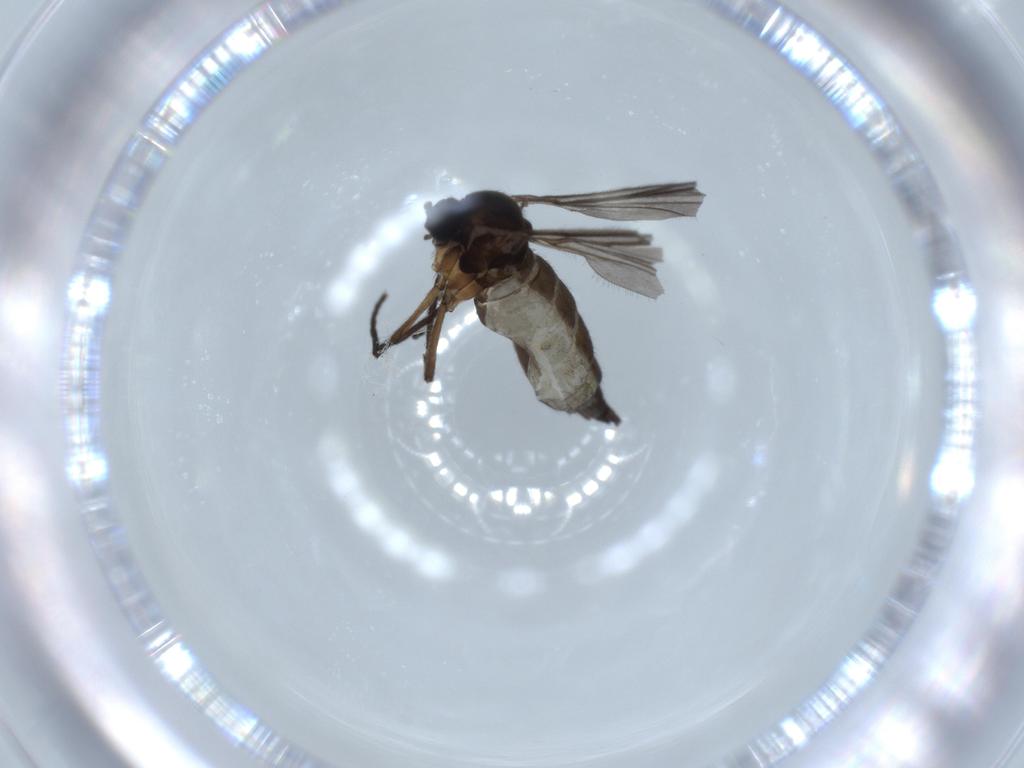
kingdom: Animalia
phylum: Arthropoda
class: Insecta
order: Diptera
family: Sciaridae
